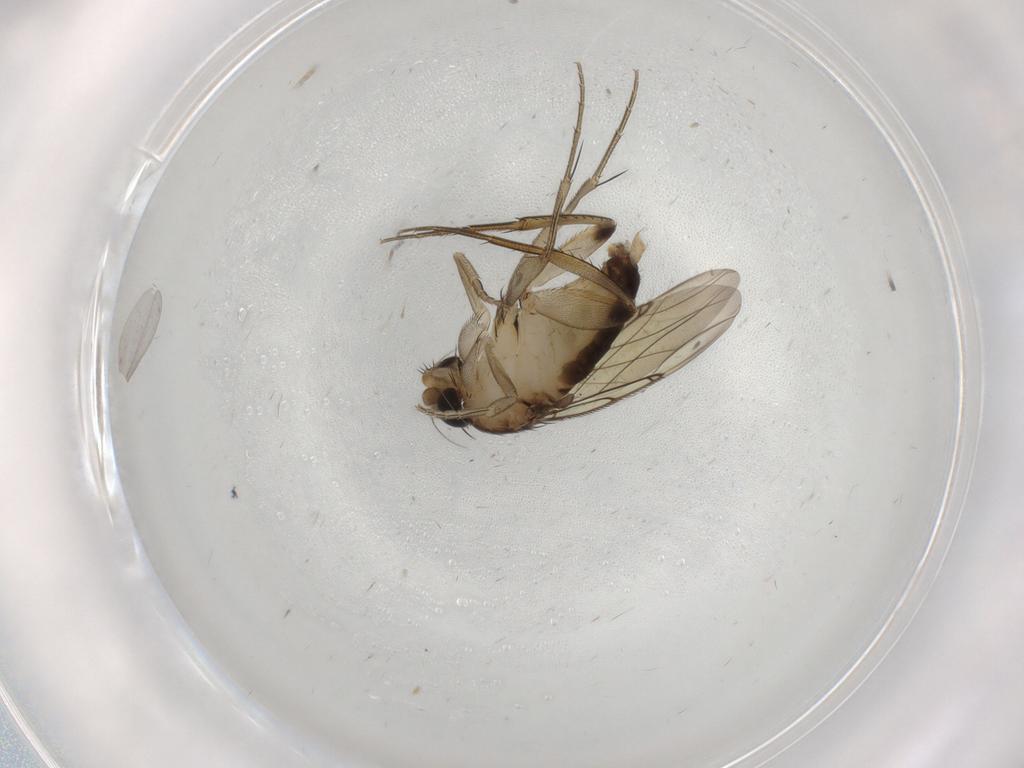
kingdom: Animalia
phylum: Arthropoda
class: Insecta
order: Diptera
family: Phoridae
